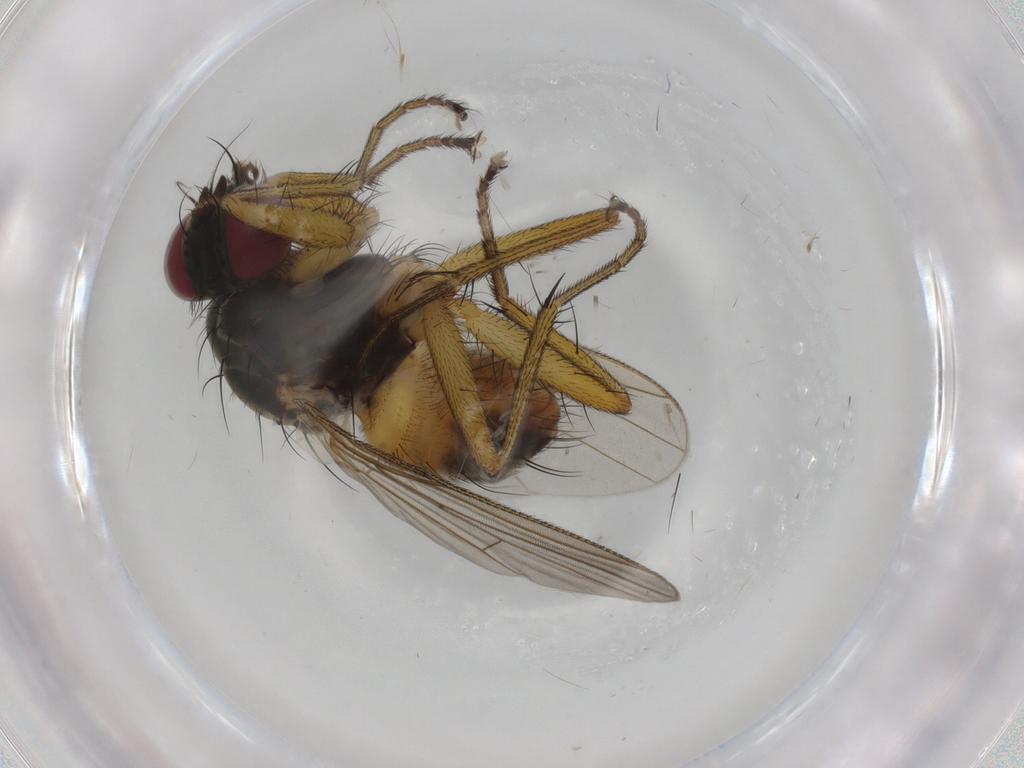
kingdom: Animalia
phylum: Arthropoda
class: Insecta
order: Diptera
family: Muscidae
